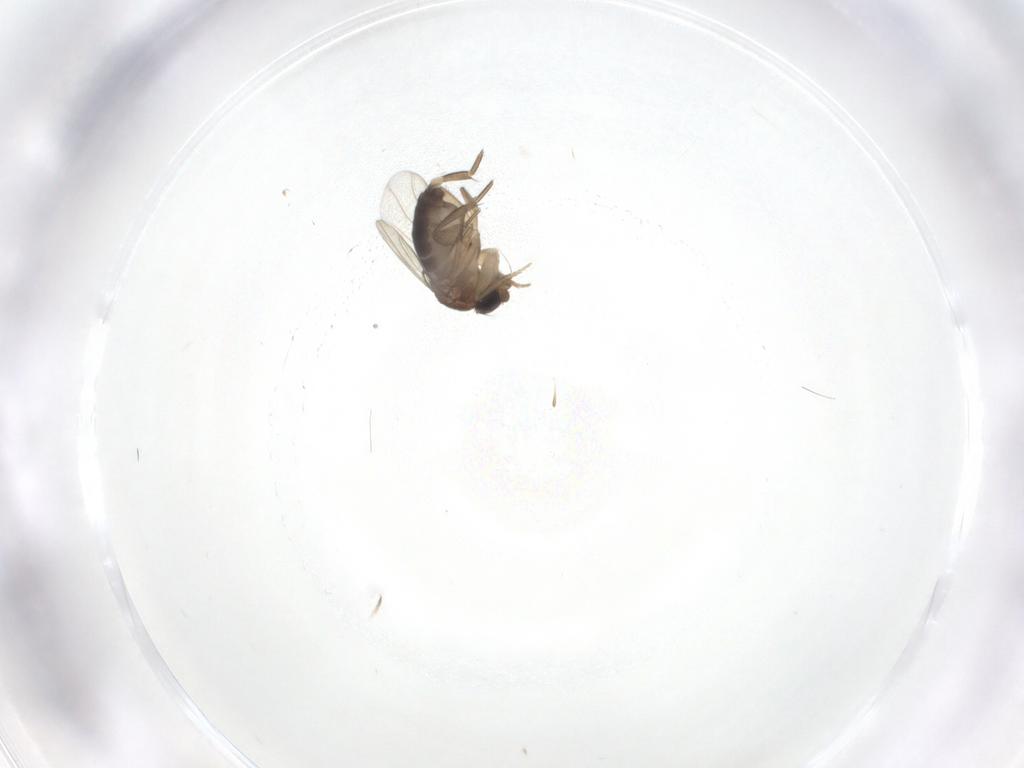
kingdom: Animalia
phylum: Arthropoda
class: Insecta
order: Diptera
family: Phoridae
